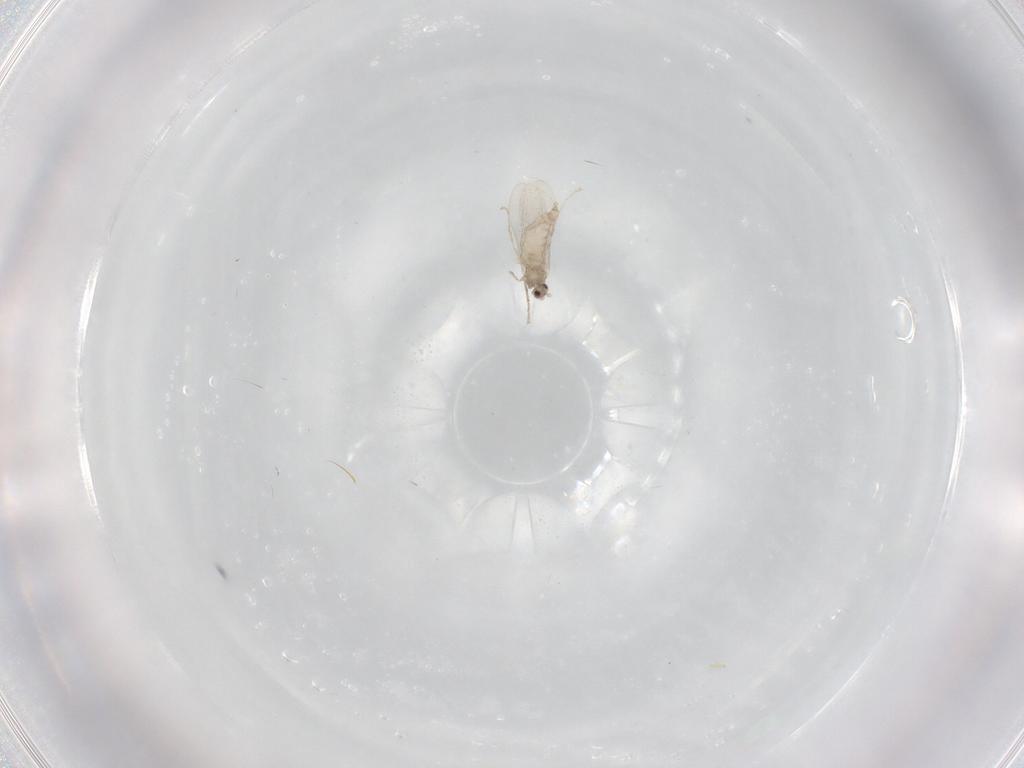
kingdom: Animalia
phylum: Arthropoda
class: Insecta
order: Diptera
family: Cecidomyiidae
